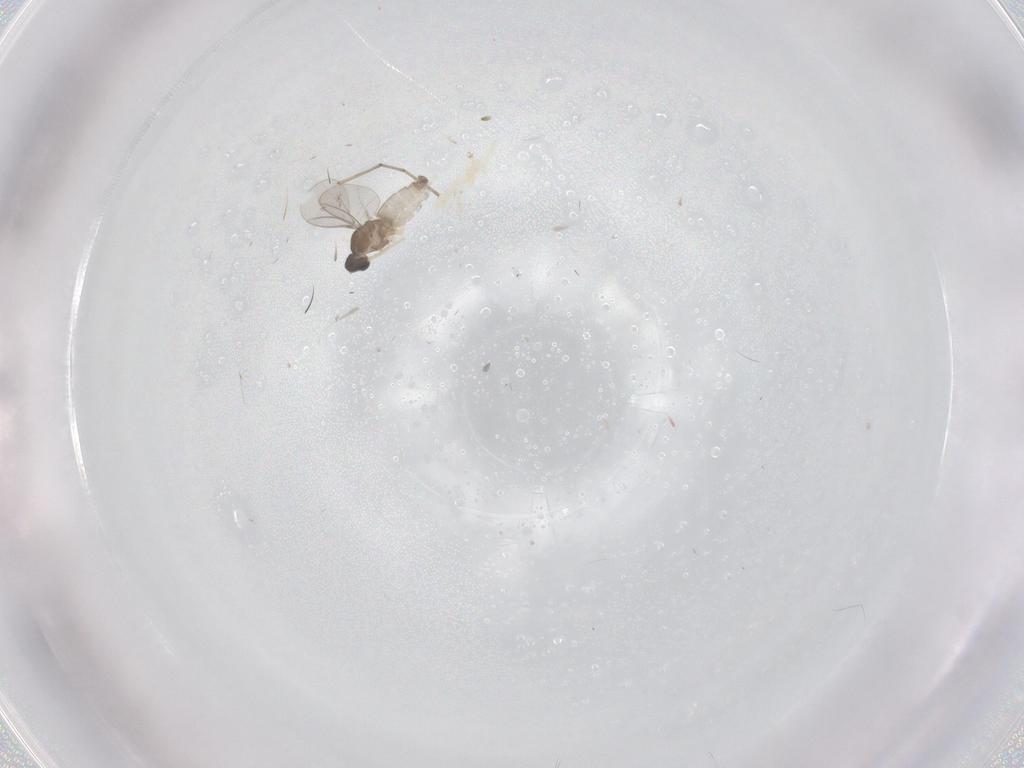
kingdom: Animalia
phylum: Arthropoda
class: Insecta
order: Diptera
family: Cecidomyiidae
